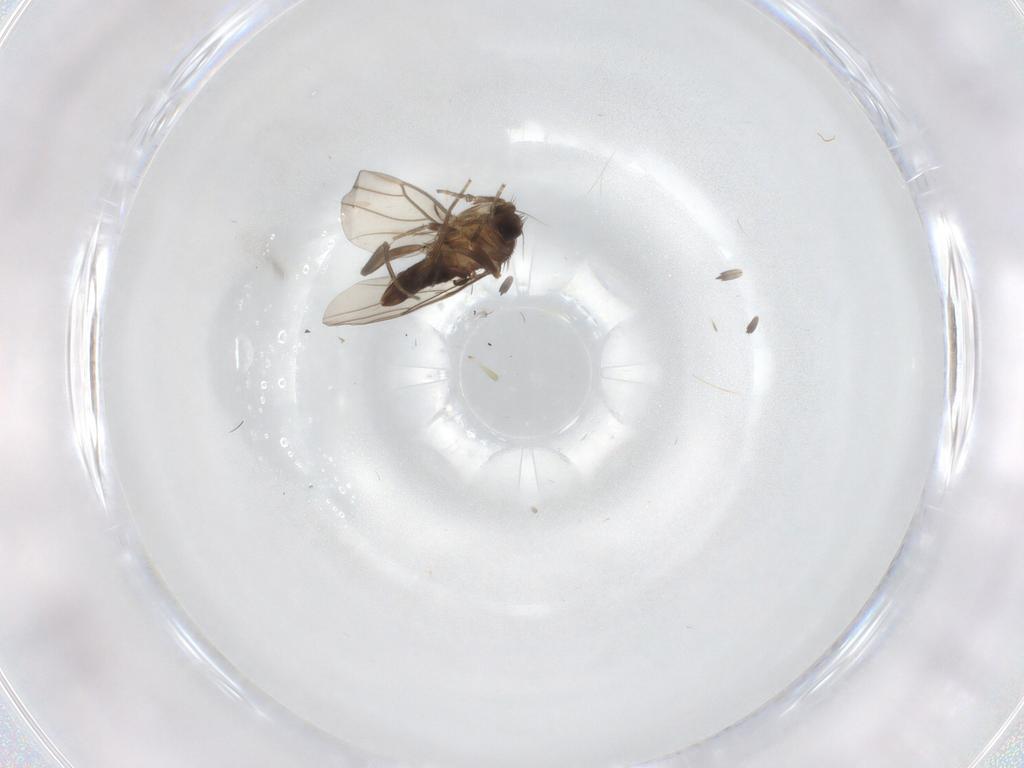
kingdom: Animalia
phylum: Arthropoda
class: Insecta
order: Diptera
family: Phoridae
